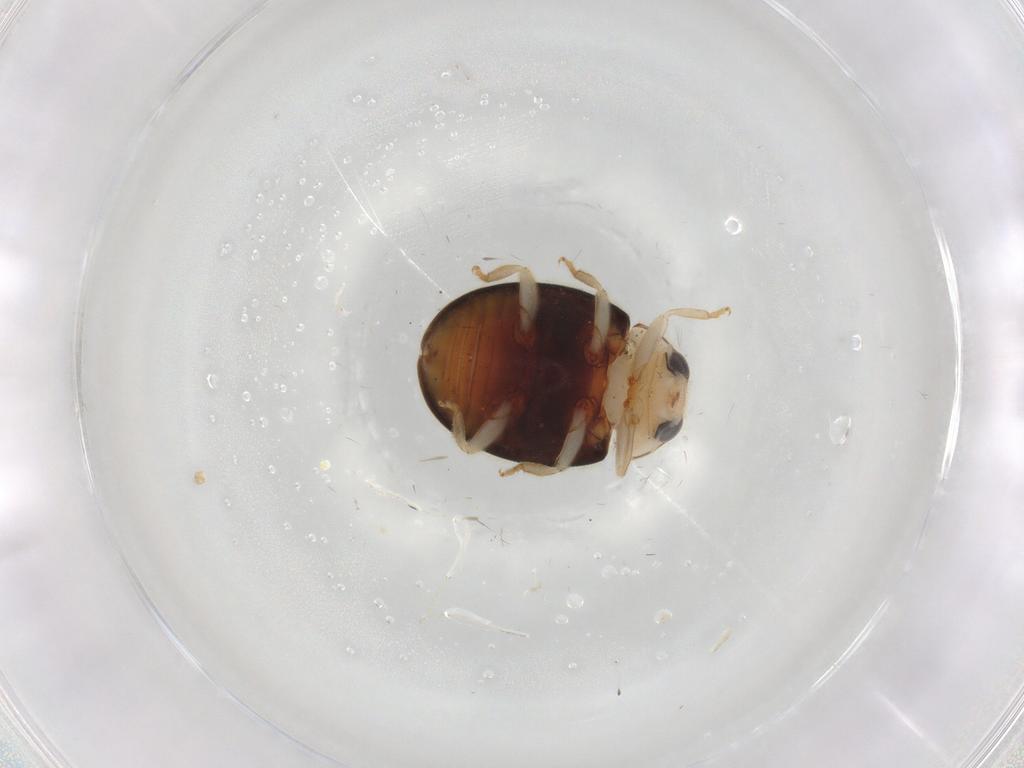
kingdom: Animalia
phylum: Arthropoda
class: Insecta
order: Coleoptera
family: Coccinellidae
